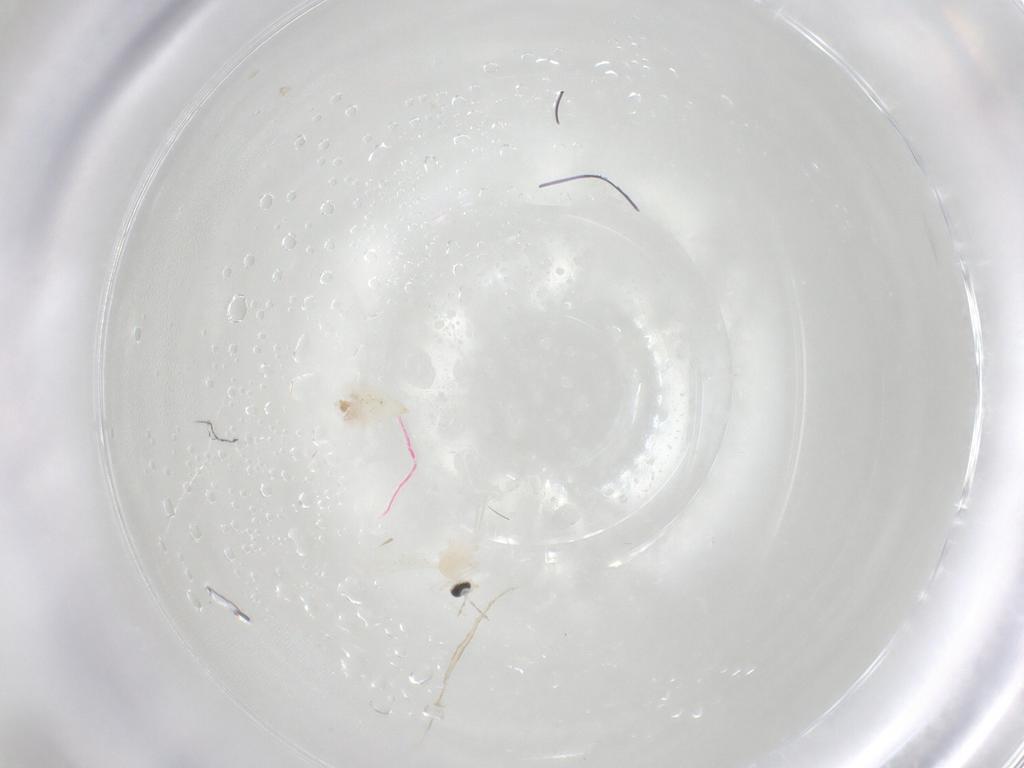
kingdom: Animalia
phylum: Arthropoda
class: Insecta
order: Diptera
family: Cecidomyiidae
